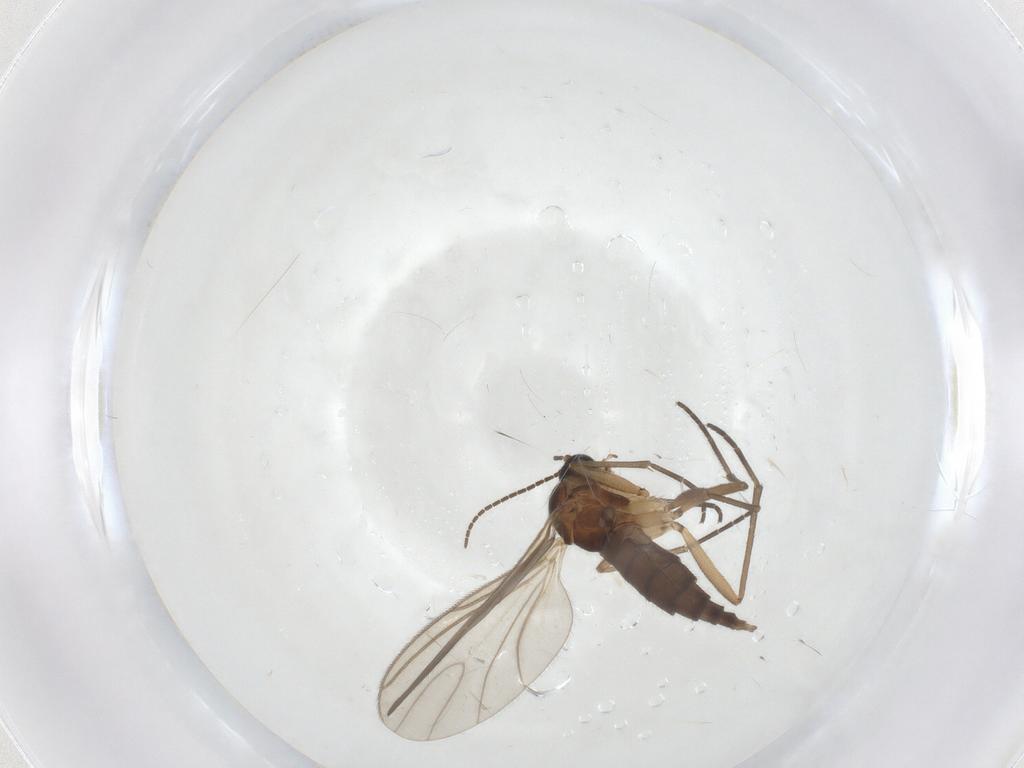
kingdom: Animalia
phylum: Arthropoda
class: Insecta
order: Diptera
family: Sciaridae
